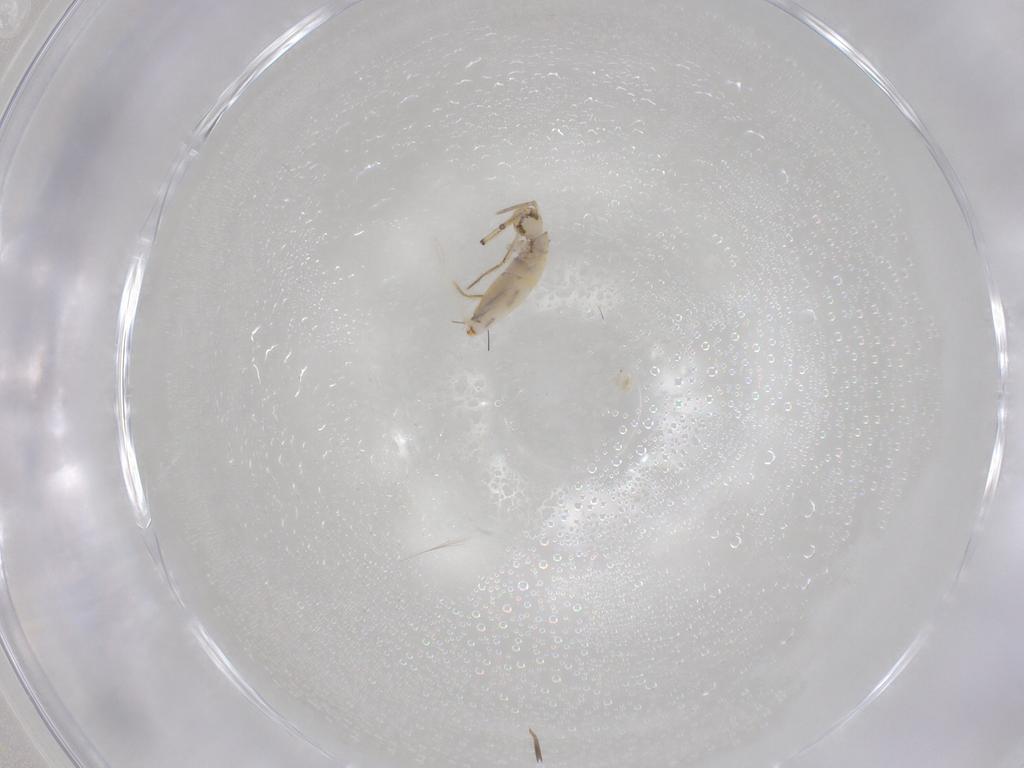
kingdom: Animalia
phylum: Arthropoda
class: Collembola
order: Entomobryomorpha
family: Entomobryidae
